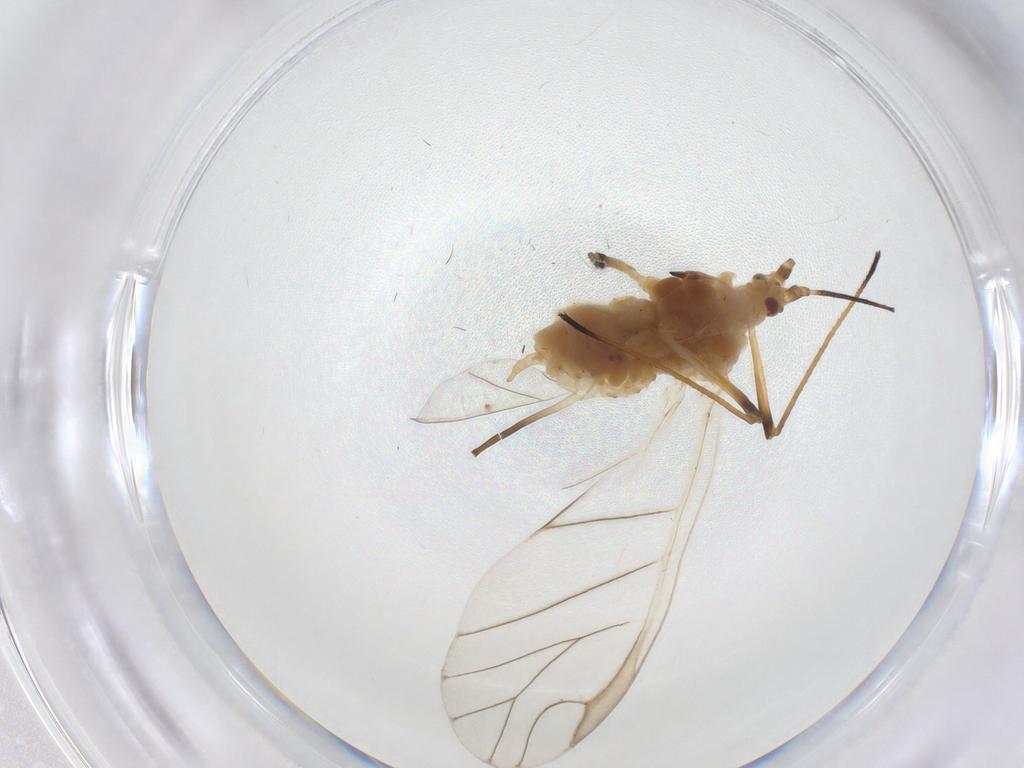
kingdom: Animalia
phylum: Arthropoda
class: Insecta
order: Hemiptera
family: Aphididae
